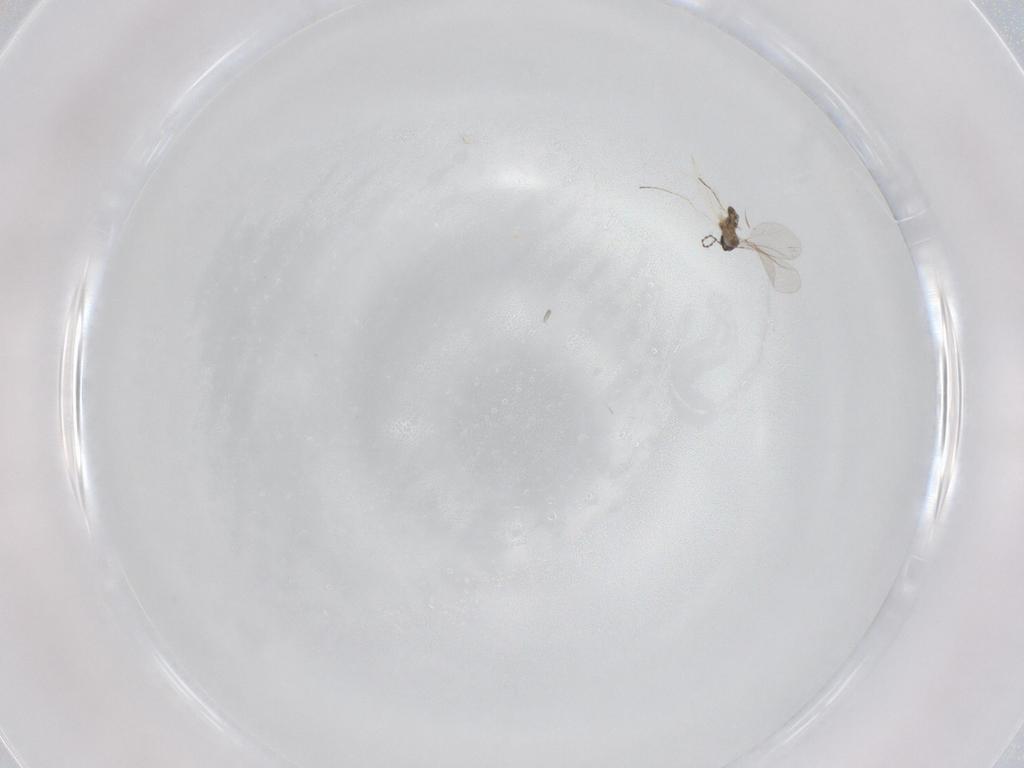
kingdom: Animalia
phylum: Arthropoda
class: Insecta
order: Diptera
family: Cecidomyiidae
